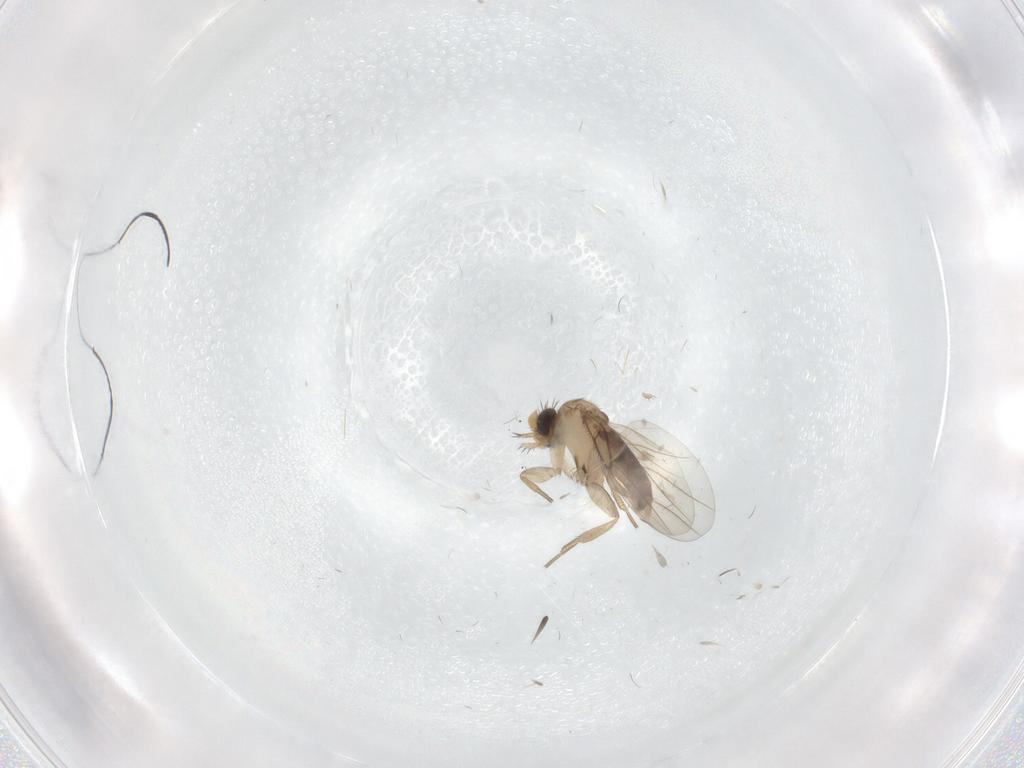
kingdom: Animalia
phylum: Arthropoda
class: Insecta
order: Diptera
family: Phoridae
